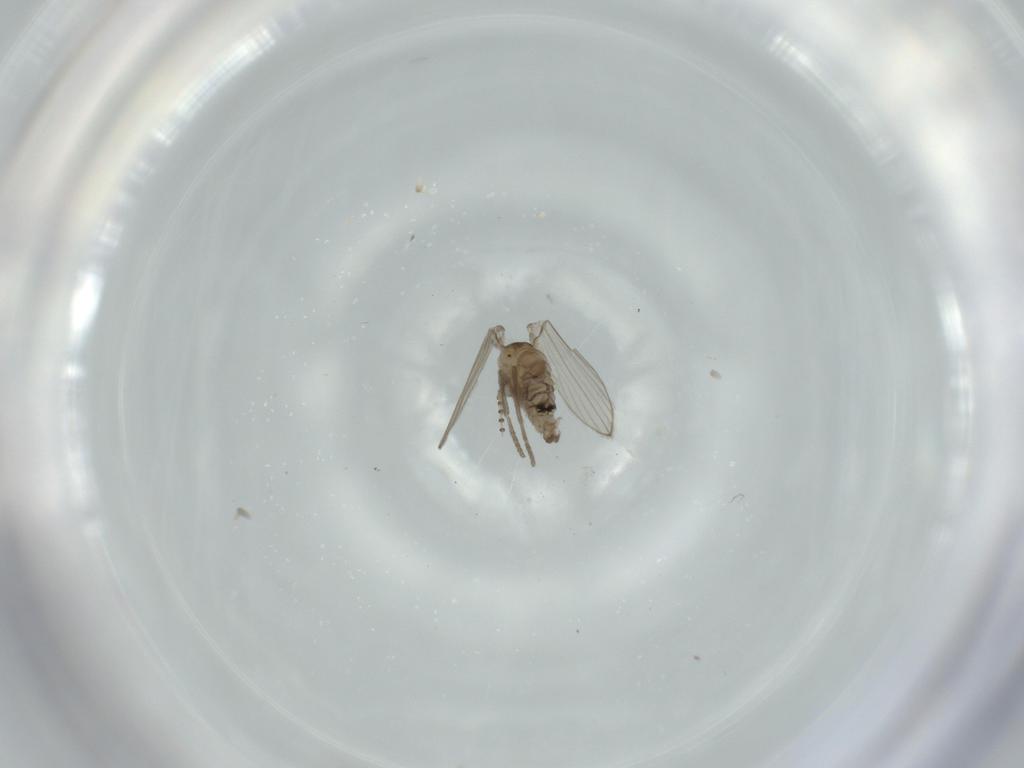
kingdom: Animalia
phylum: Arthropoda
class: Insecta
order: Diptera
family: Psychodidae
